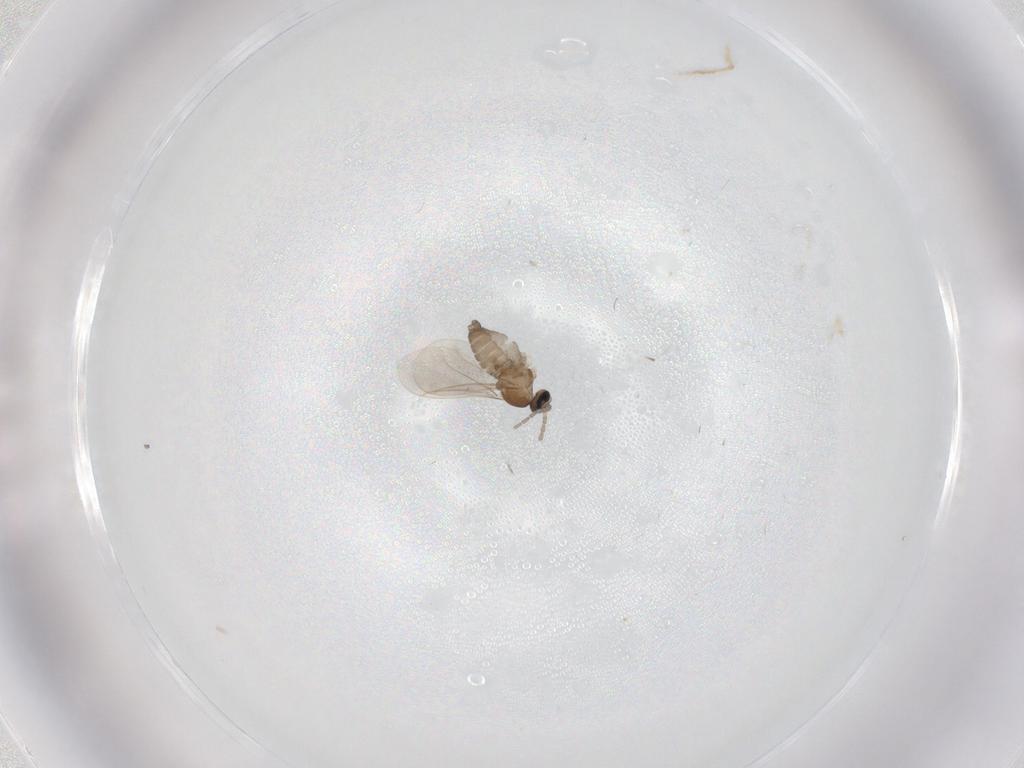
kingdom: Animalia
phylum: Arthropoda
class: Insecta
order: Diptera
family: Cecidomyiidae
